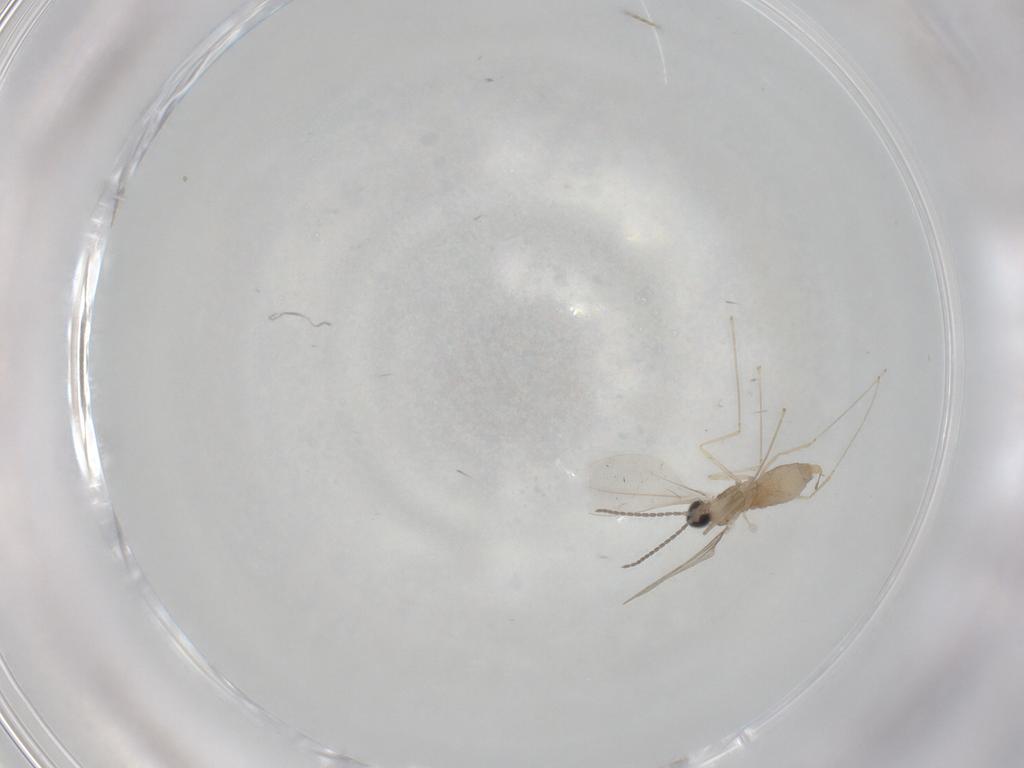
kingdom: Animalia
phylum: Arthropoda
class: Insecta
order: Diptera
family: Cecidomyiidae
